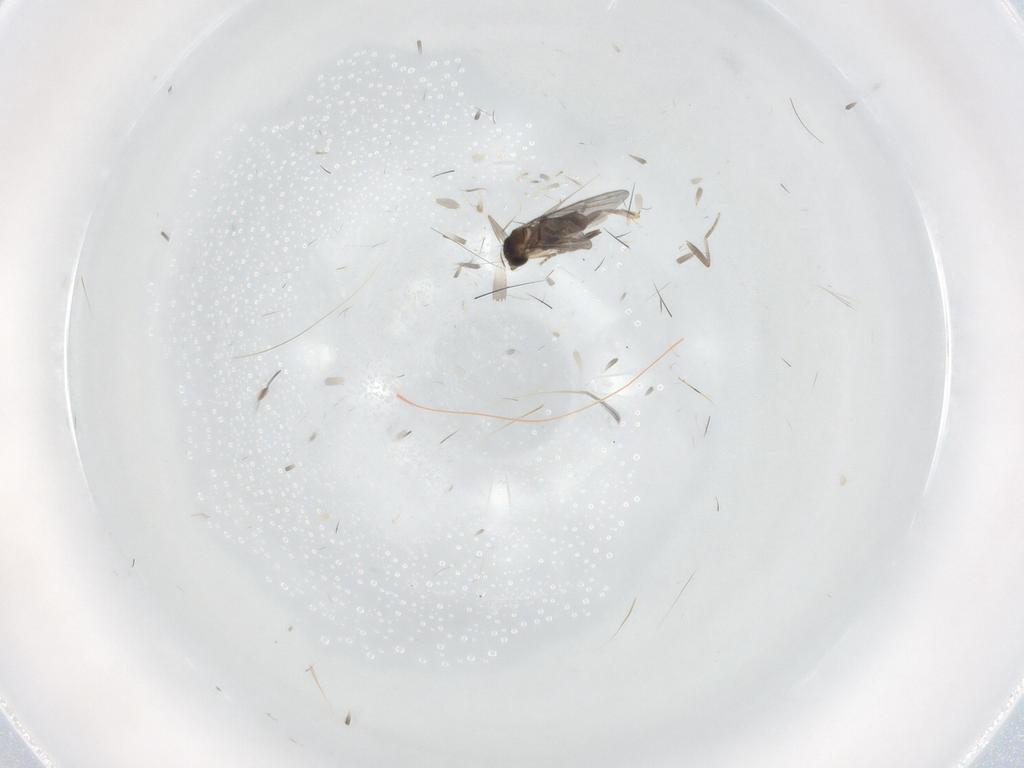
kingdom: Animalia
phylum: Arthropoda
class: Insecta
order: Diptera
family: Psychodidae
